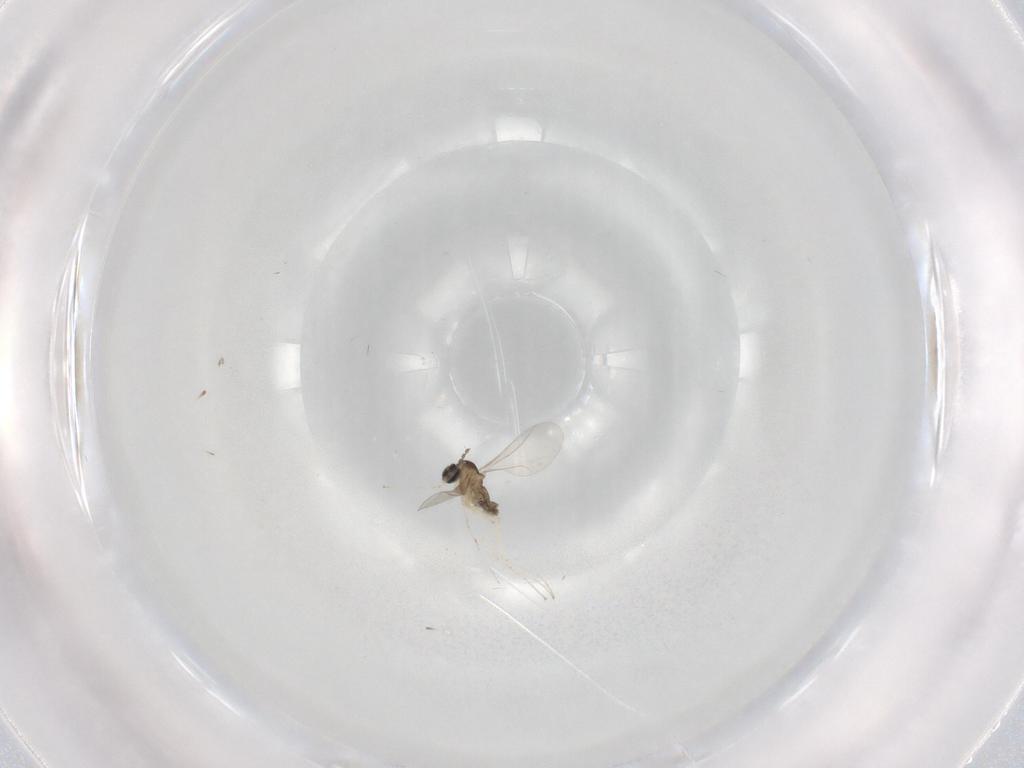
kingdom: Animalia
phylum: Arthropoda
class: Insecta
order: Diptera
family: Cecidomyiidae
